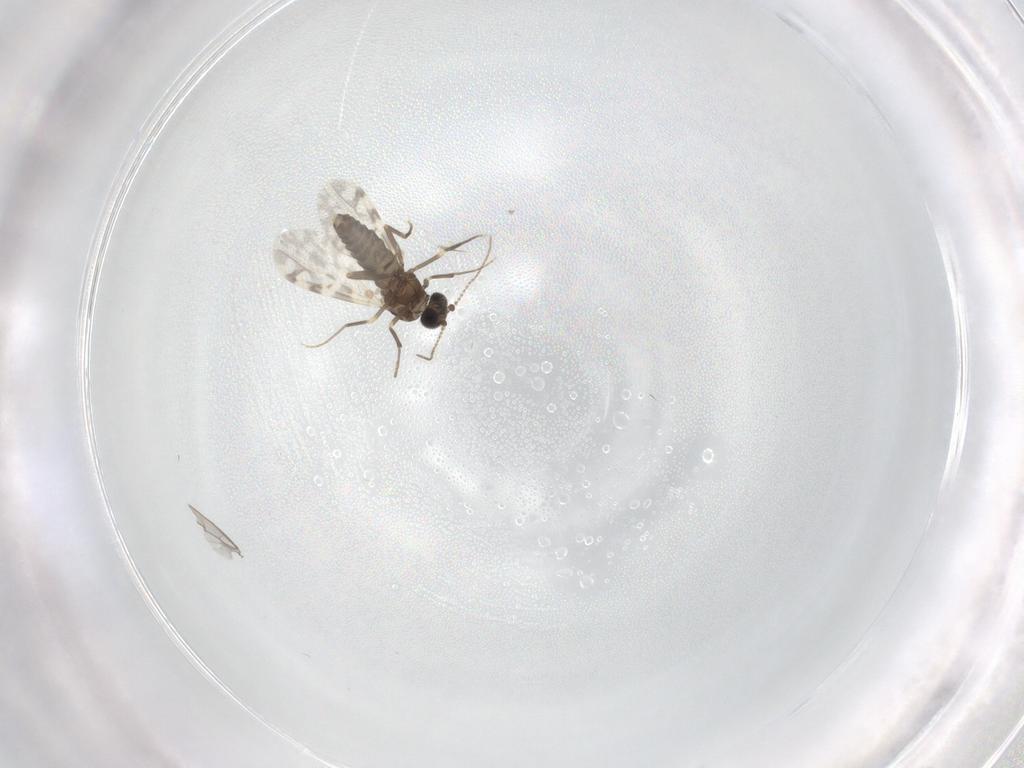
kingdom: Animalia
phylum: Arthropoda
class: Insecta
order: Diptera
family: Ceratopogonidae
